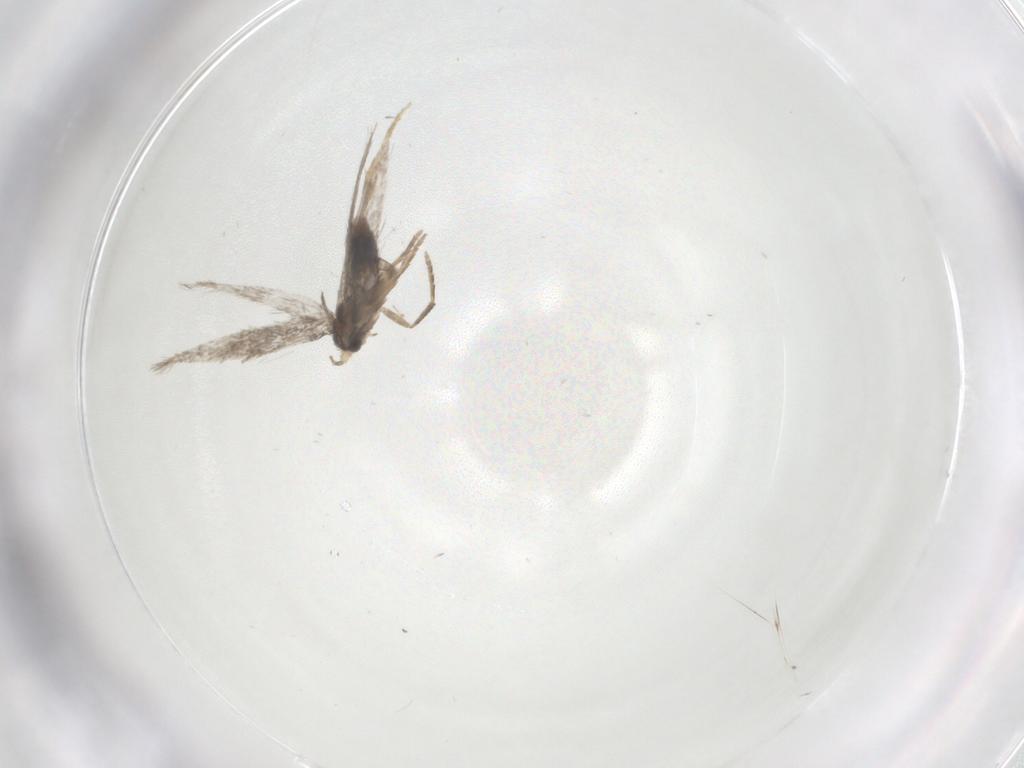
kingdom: Animalia
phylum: Arthropoda
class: Insecta
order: Lepidoptera
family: Nepticulidae
